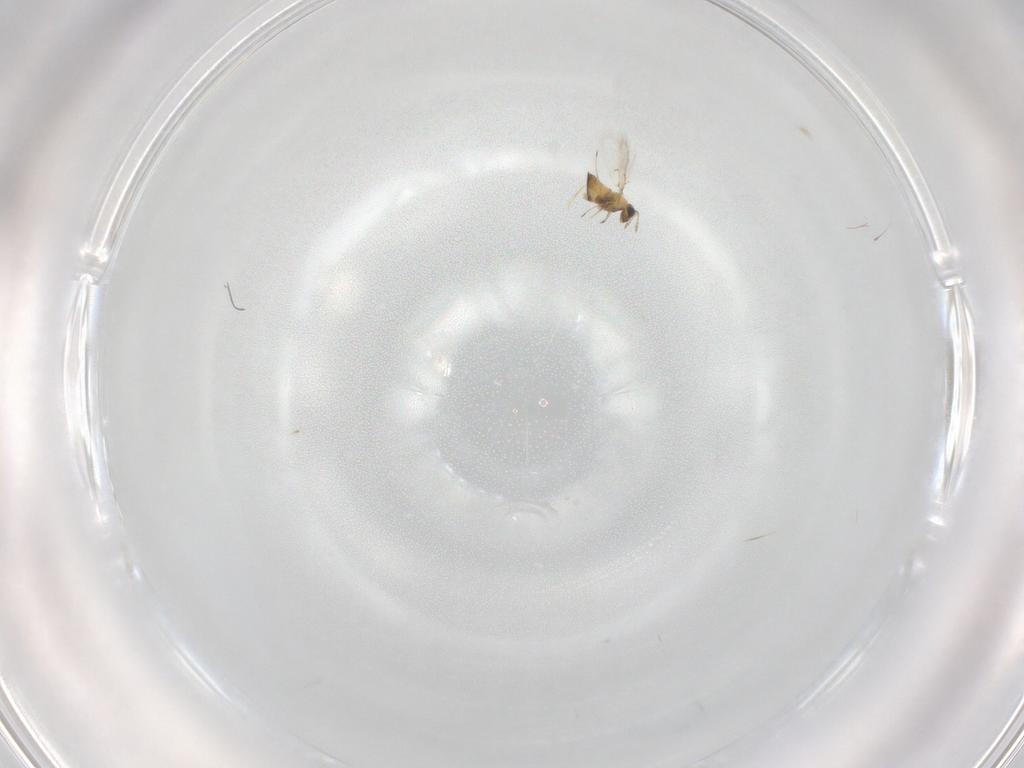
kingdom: Animalia
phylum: Arthropoda
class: Insecta
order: Hymenoptera
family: Trichogrammatidae
